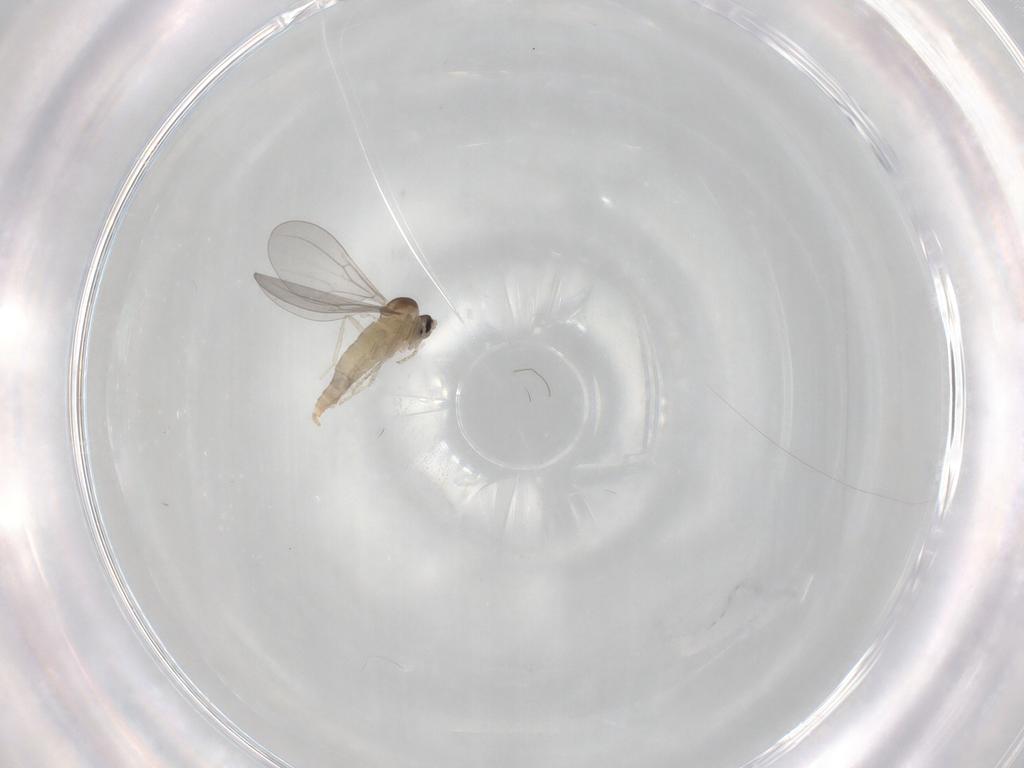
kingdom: Animalia
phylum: Arthropoda
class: Insecta
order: Diptera
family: Cecidomyiidae
